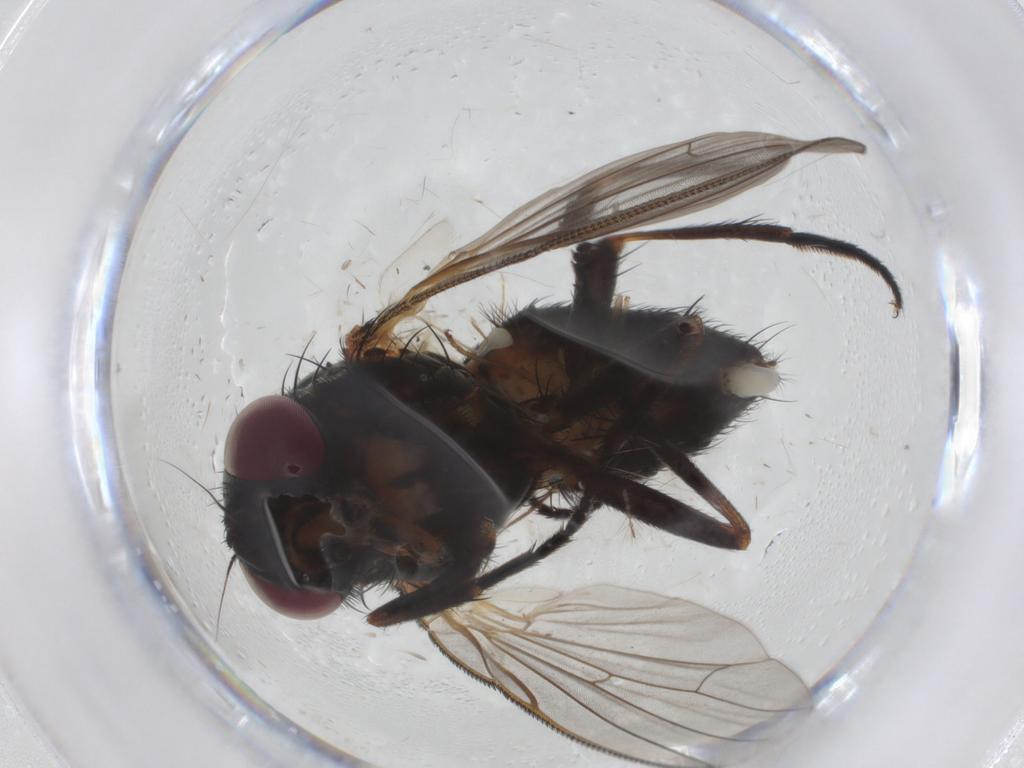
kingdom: Animalia
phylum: Arthropoda
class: Insecta
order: Diptera
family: Fannia
